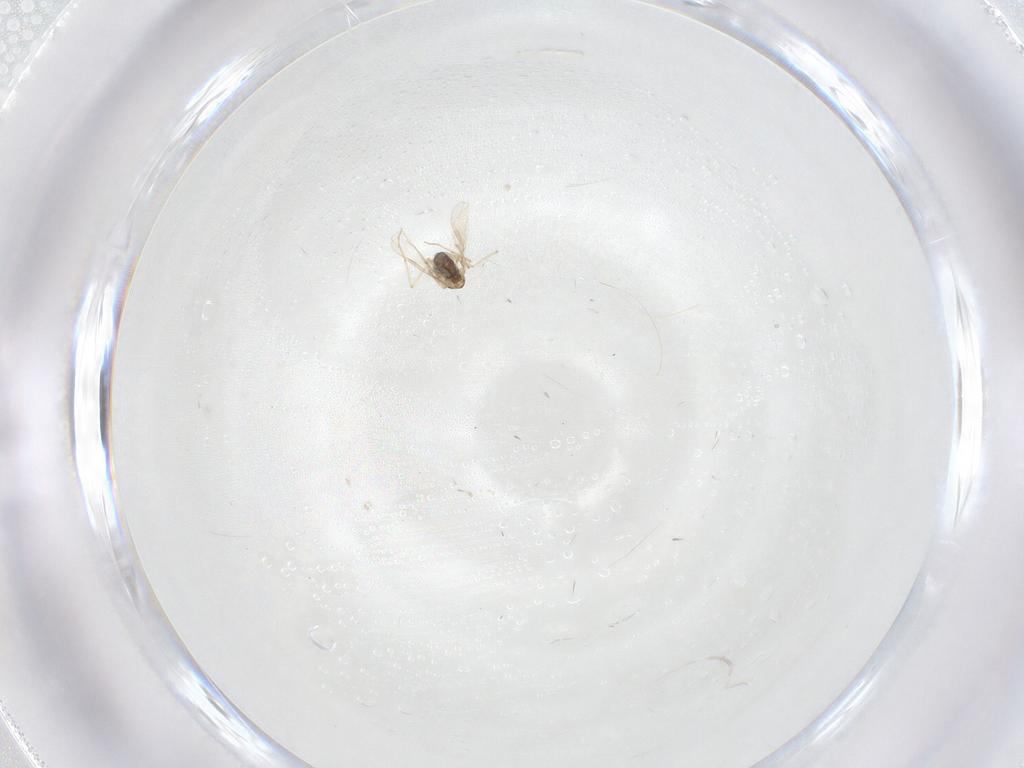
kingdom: Animalia
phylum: Arthropoda
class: Insecta
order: Diptera
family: Chironomidae
